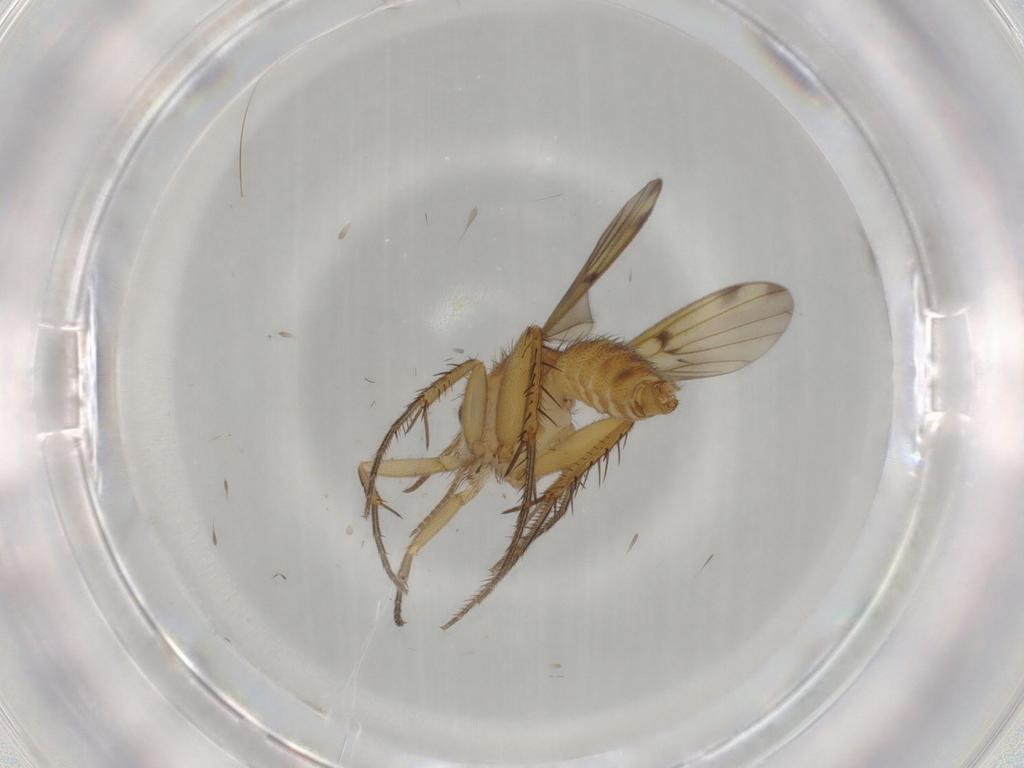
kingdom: Animalia
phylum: Arthropoda
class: Insecta
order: Diptera
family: Mycetophilidae
